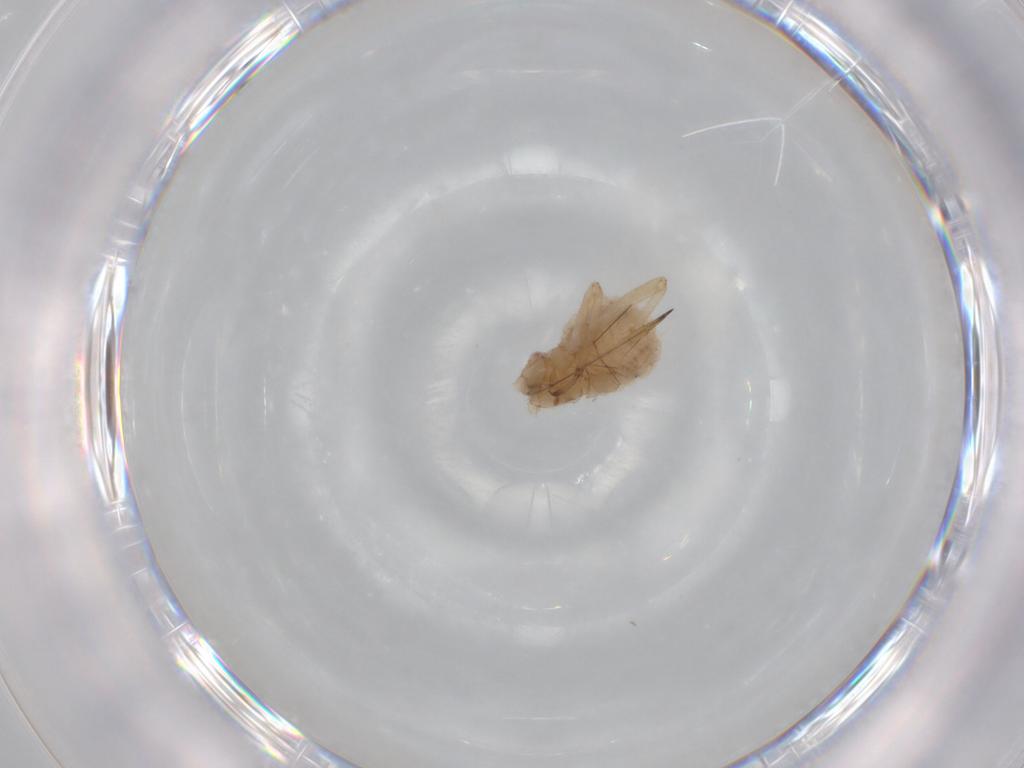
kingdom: Animalia
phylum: Arthropoda
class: Insecta
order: Hemiptera
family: Aphididae
